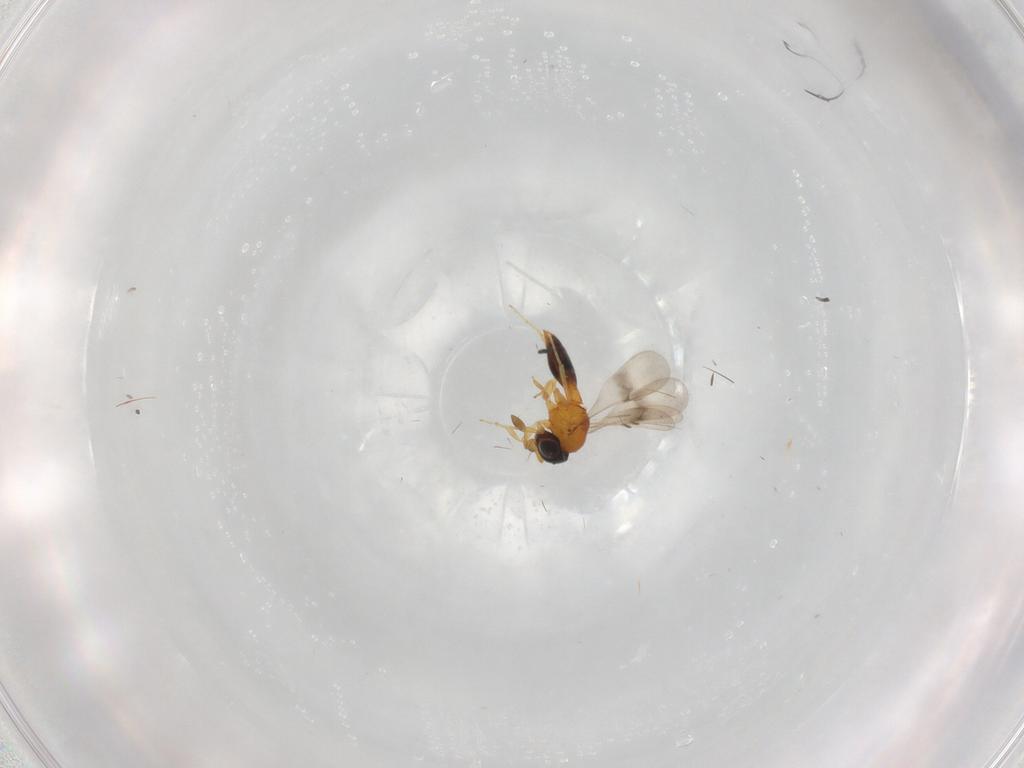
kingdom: Animalia
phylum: Arthropoda
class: Insecta
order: Hymenoptera
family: Scelionidae
